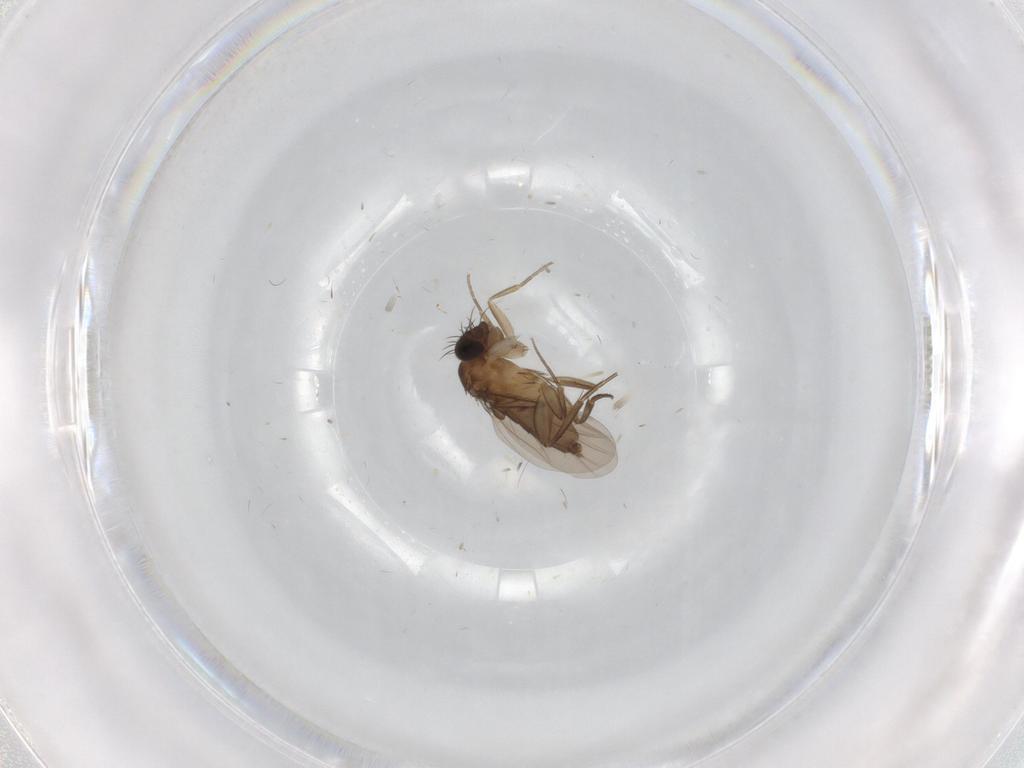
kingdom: Animalia
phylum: Arthropoda
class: Insecta
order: Diptera
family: Phoridae
